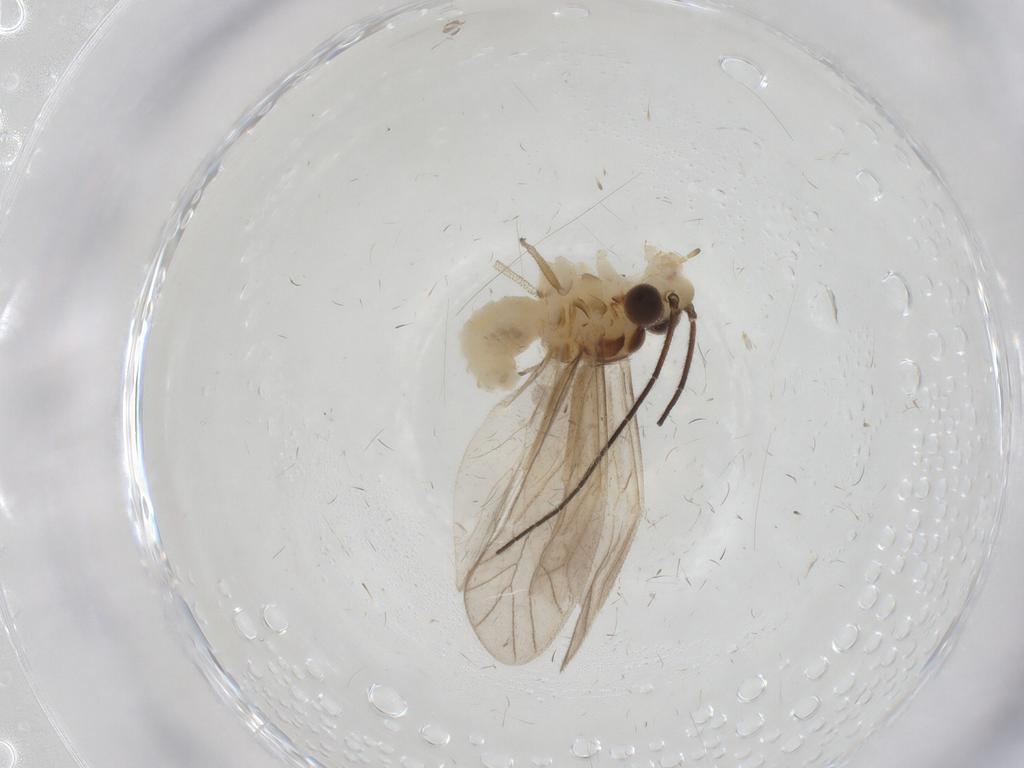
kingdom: Animalia
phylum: Arthropoda
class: Insecta
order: Psocodea
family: Caeciliusidae
